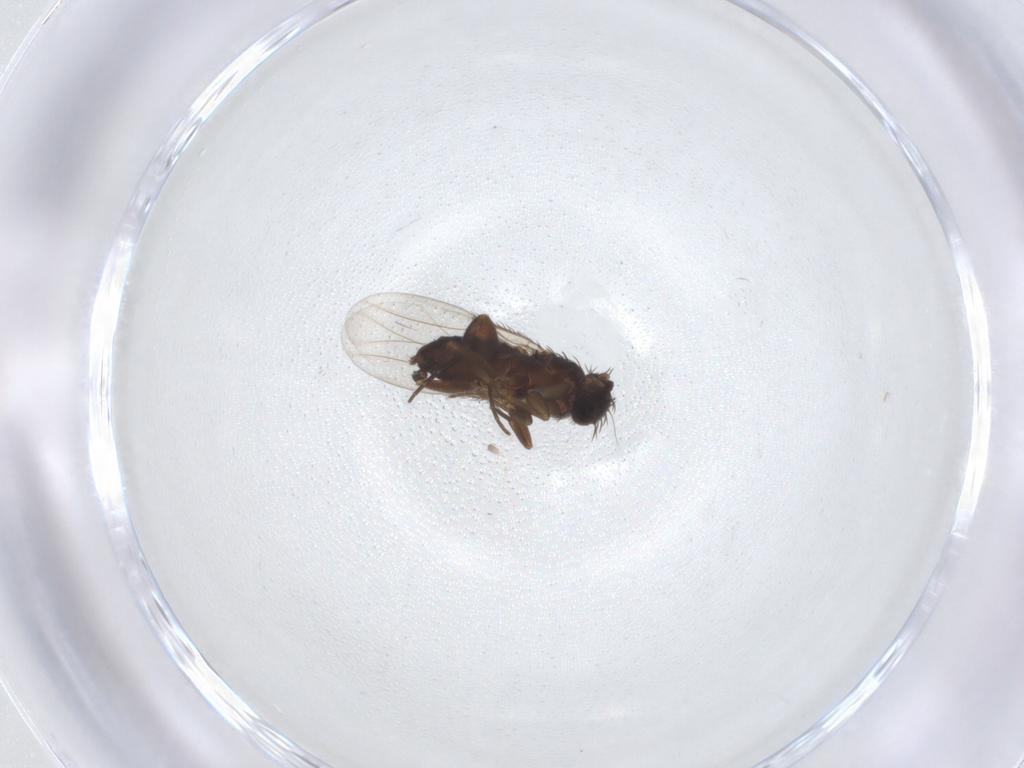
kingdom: Animalia
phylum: Arthropoda
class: Insecta
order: Diptera
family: Phoridae
